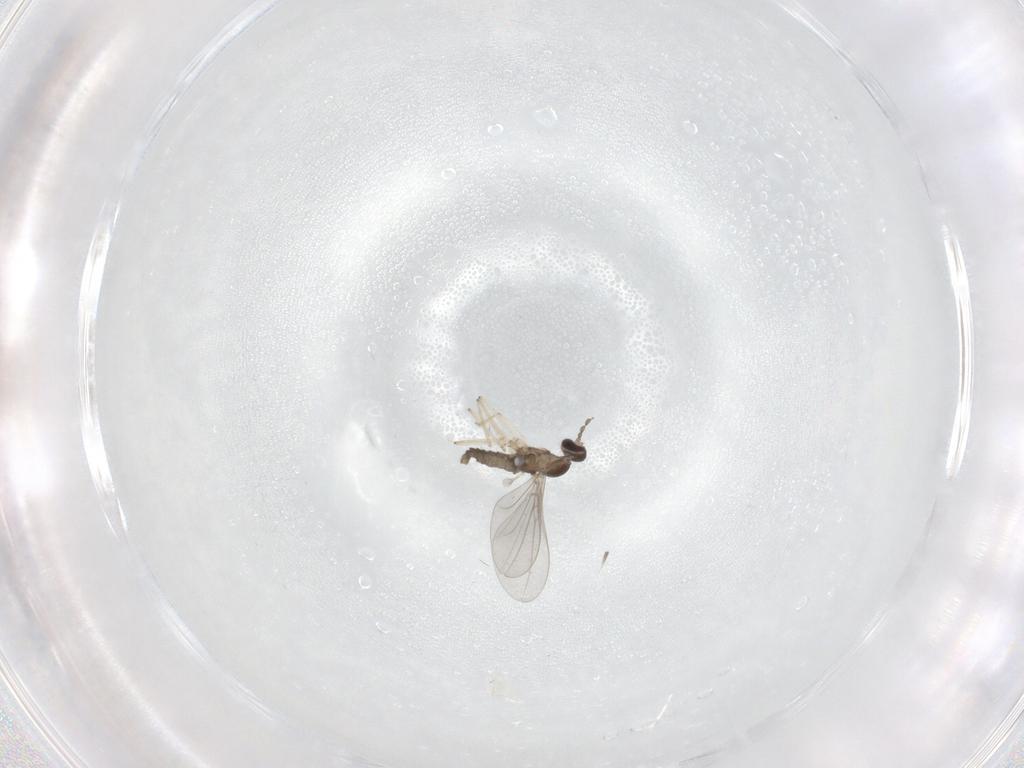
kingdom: Animalia
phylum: Arthropoda
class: Insecta
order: Diptera
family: Cecidomyiidae
